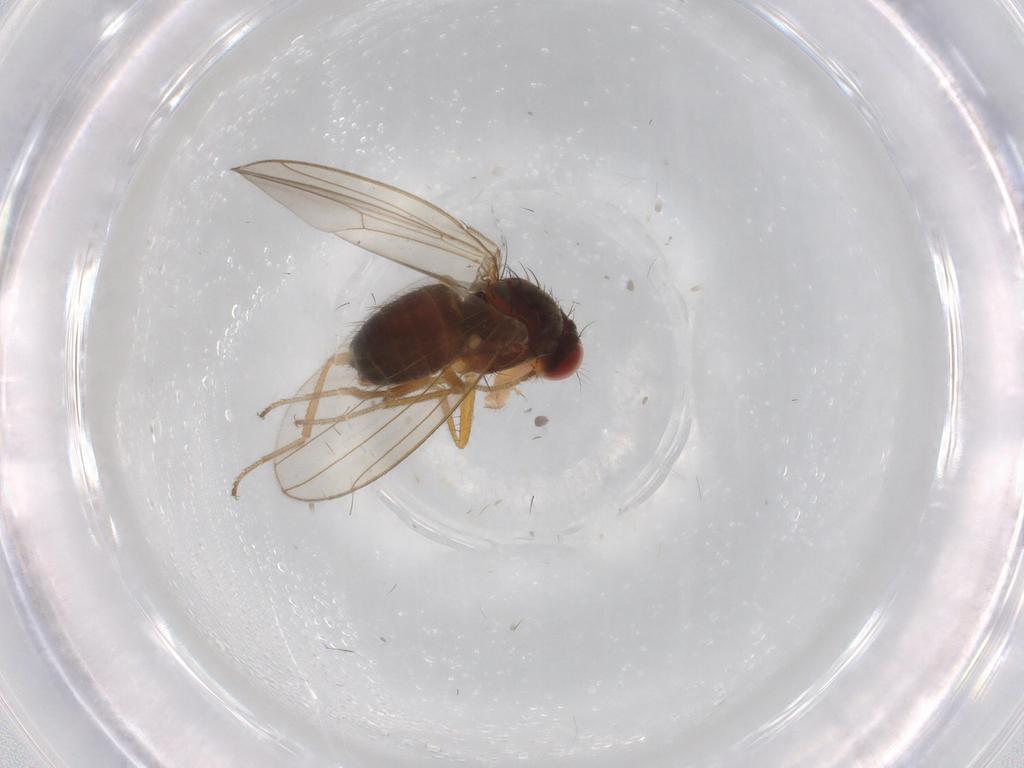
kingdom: Animalia
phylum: Arthropoda
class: Insecta
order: Diptera
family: Drosophilidae
